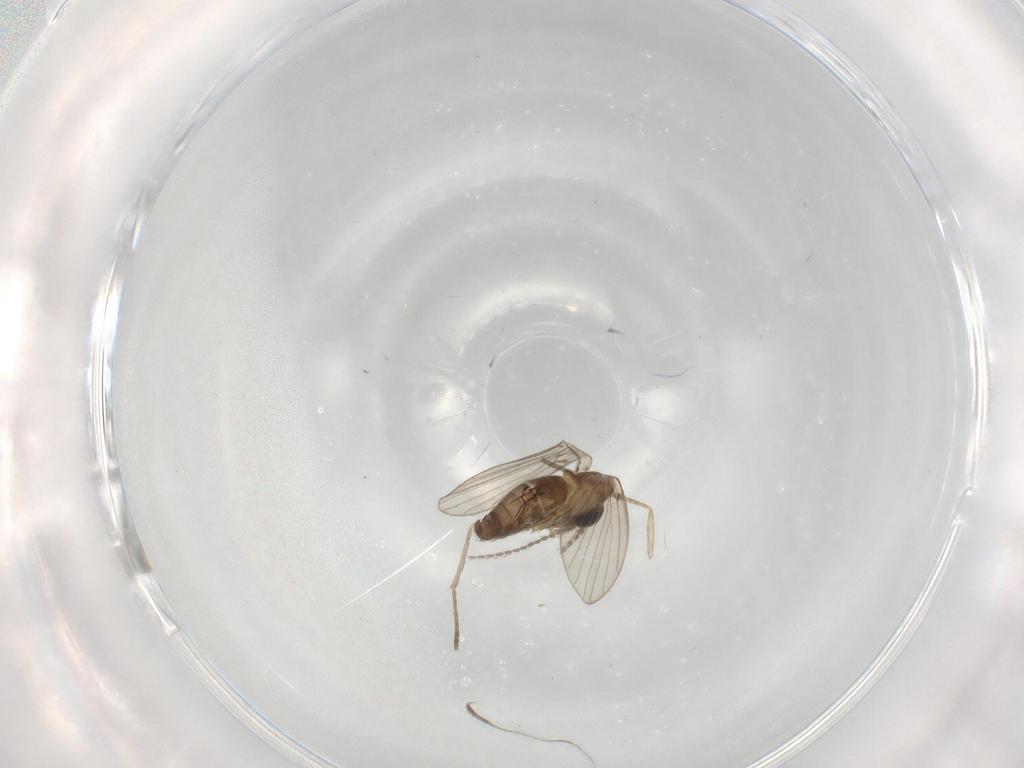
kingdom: Animalia
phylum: Arthropoda
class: Insecta
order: Diptera
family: Psychodidae
